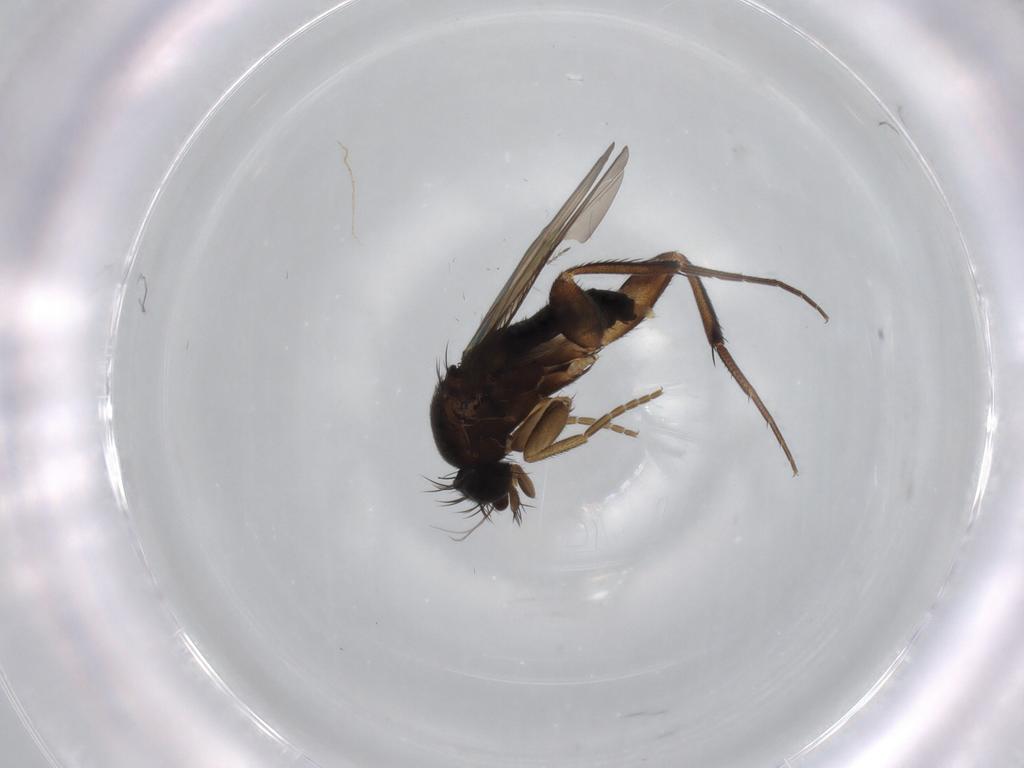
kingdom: Animalia
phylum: Arthropoda
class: Insecta
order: Diptera
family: Phoridae
